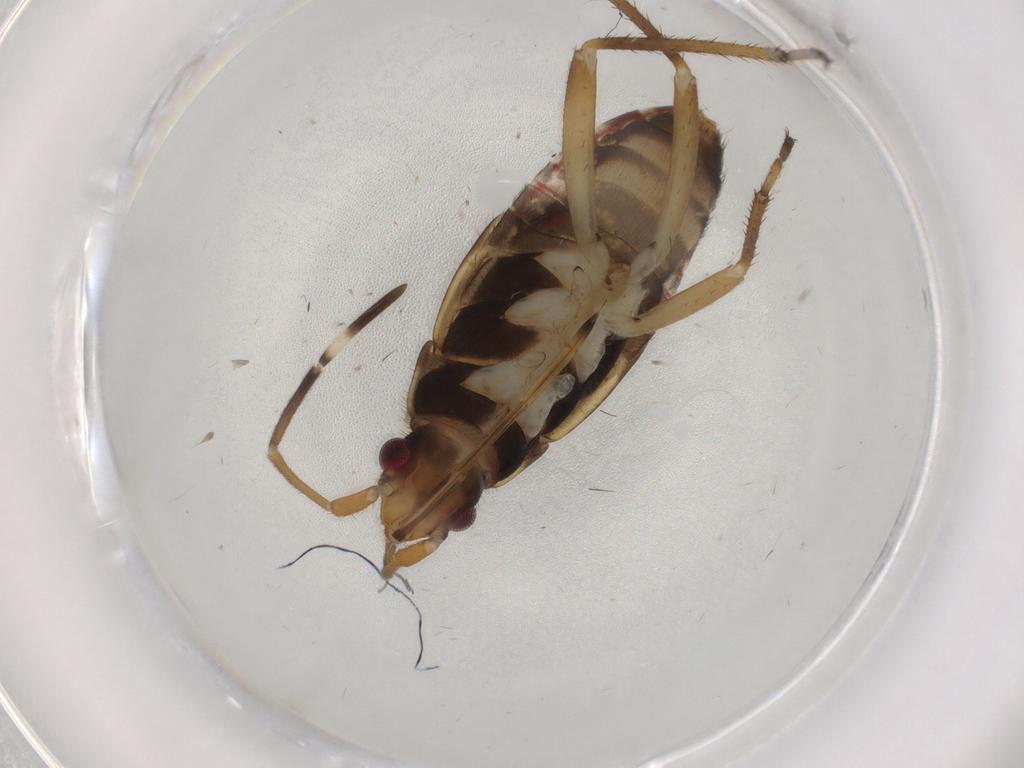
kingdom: Animalia
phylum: Arthropoda
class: Insecta
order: Hemiptera
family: Rhyparochromidae
